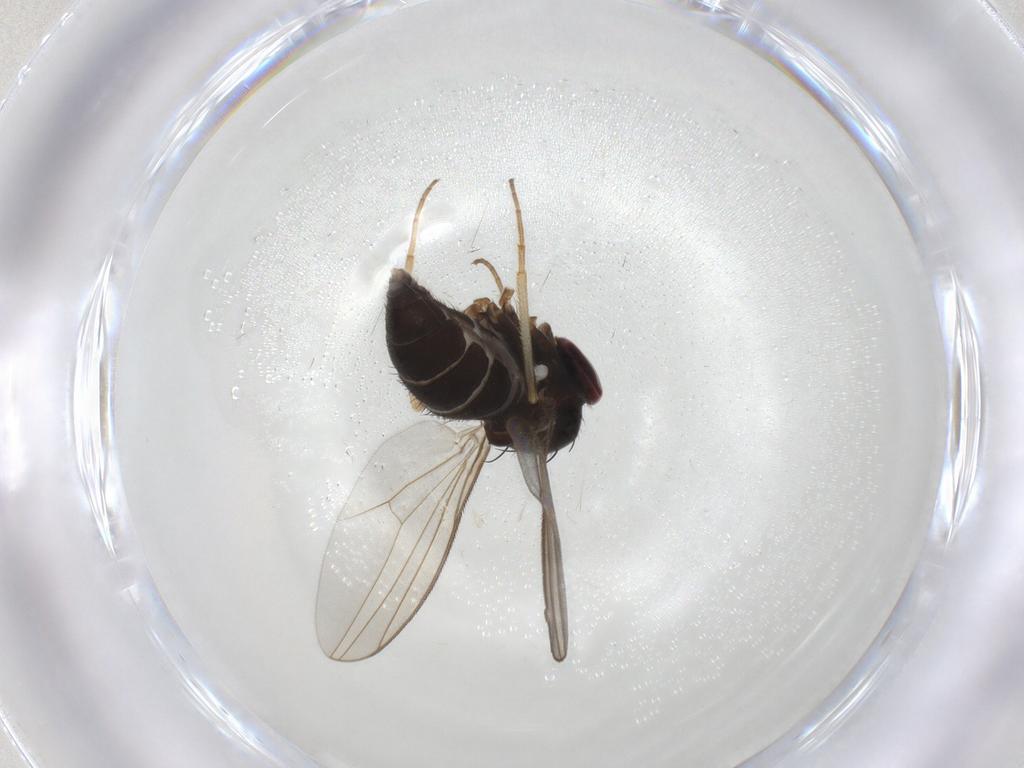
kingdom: Animalia
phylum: Arthropoda
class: Insecta
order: Diptera
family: Dolichopodidae
